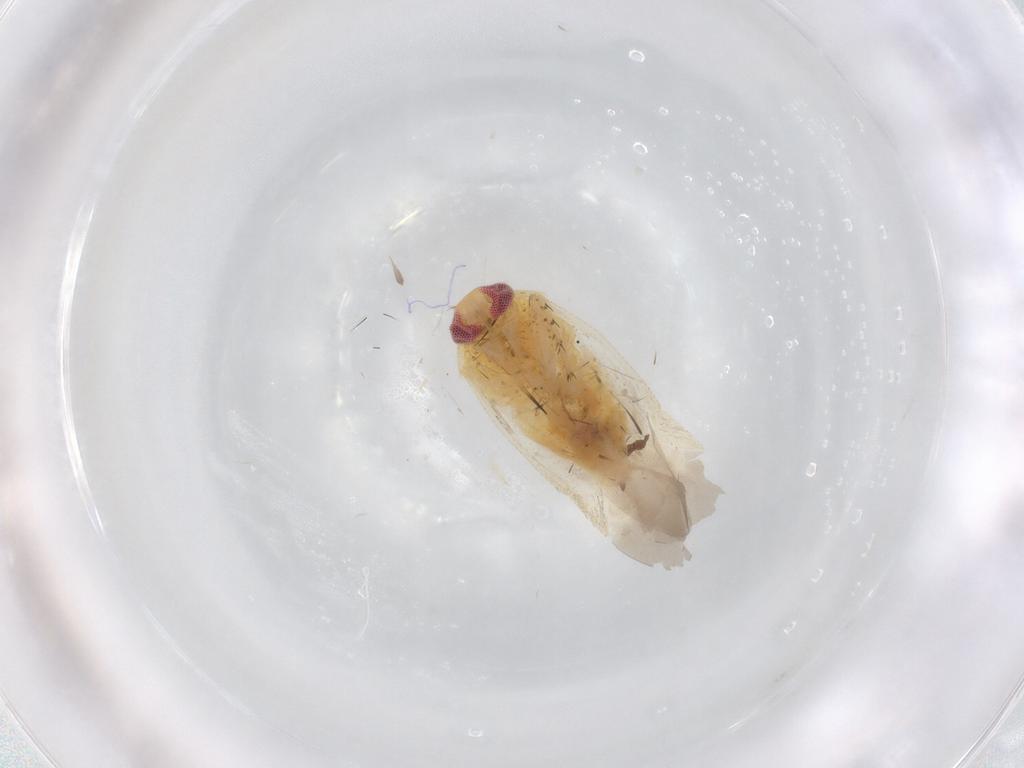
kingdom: Animalia
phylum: Arthropoda
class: Insecta
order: Hemiptera
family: Miridae
